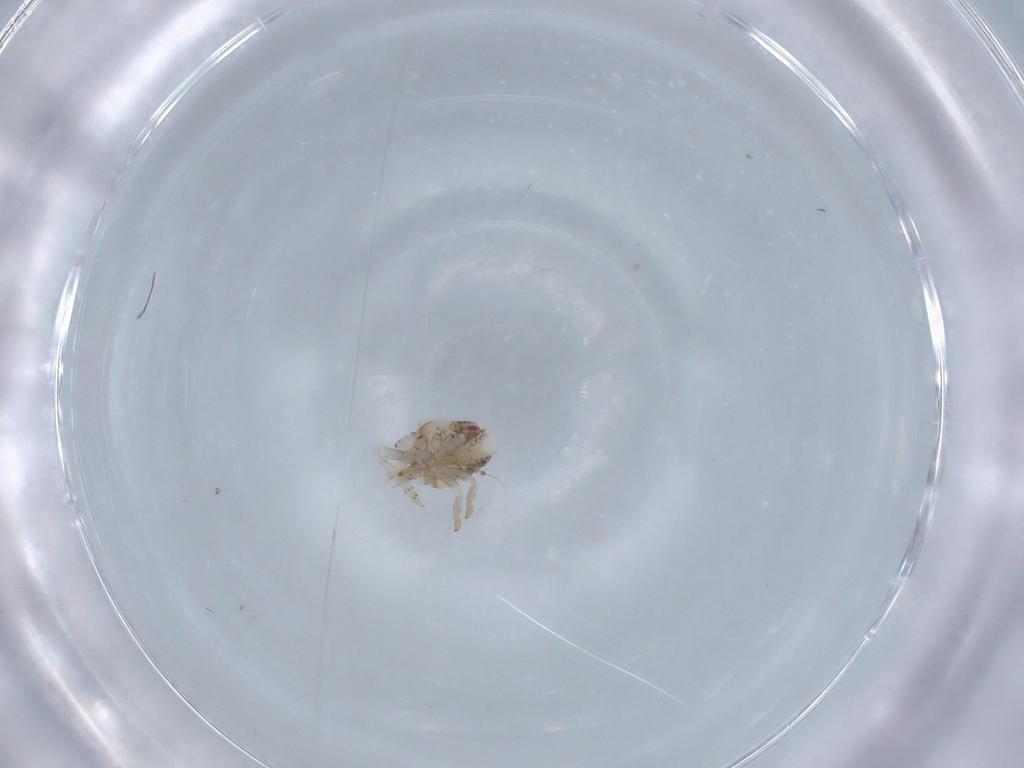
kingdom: Animalia
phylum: Arthropoda
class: Insecta
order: Hemiptera
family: Acanaloniidae
